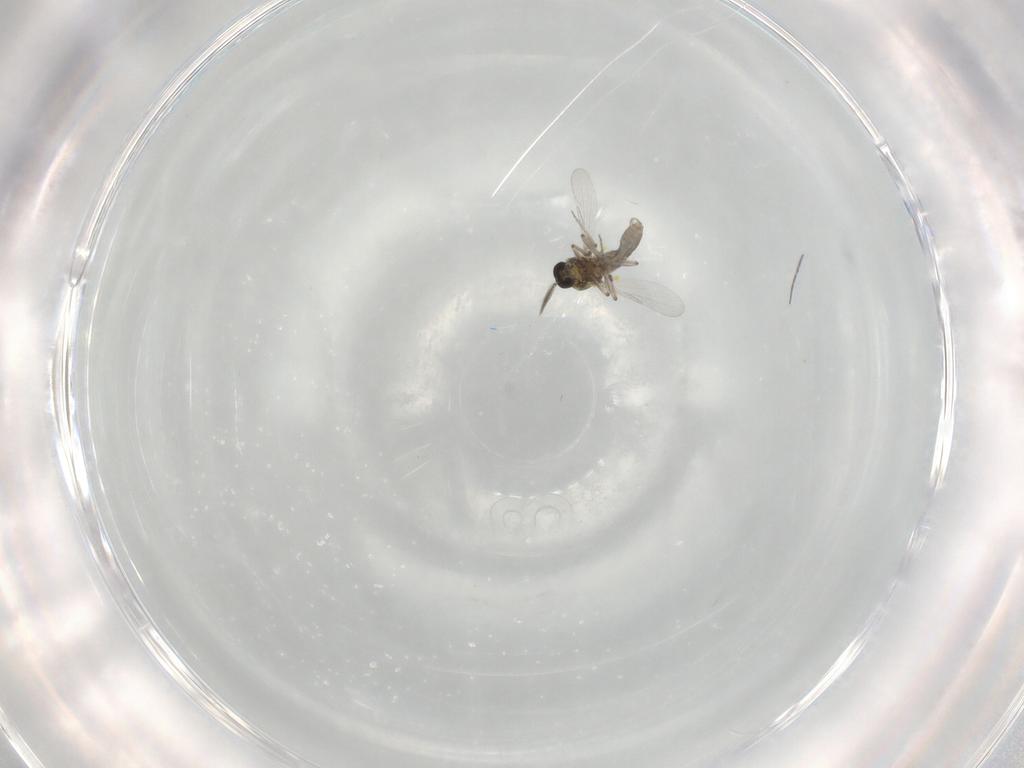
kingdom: Animalia
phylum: Arthropoda
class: Insecta
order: Diptera
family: Ceratopogonidae
